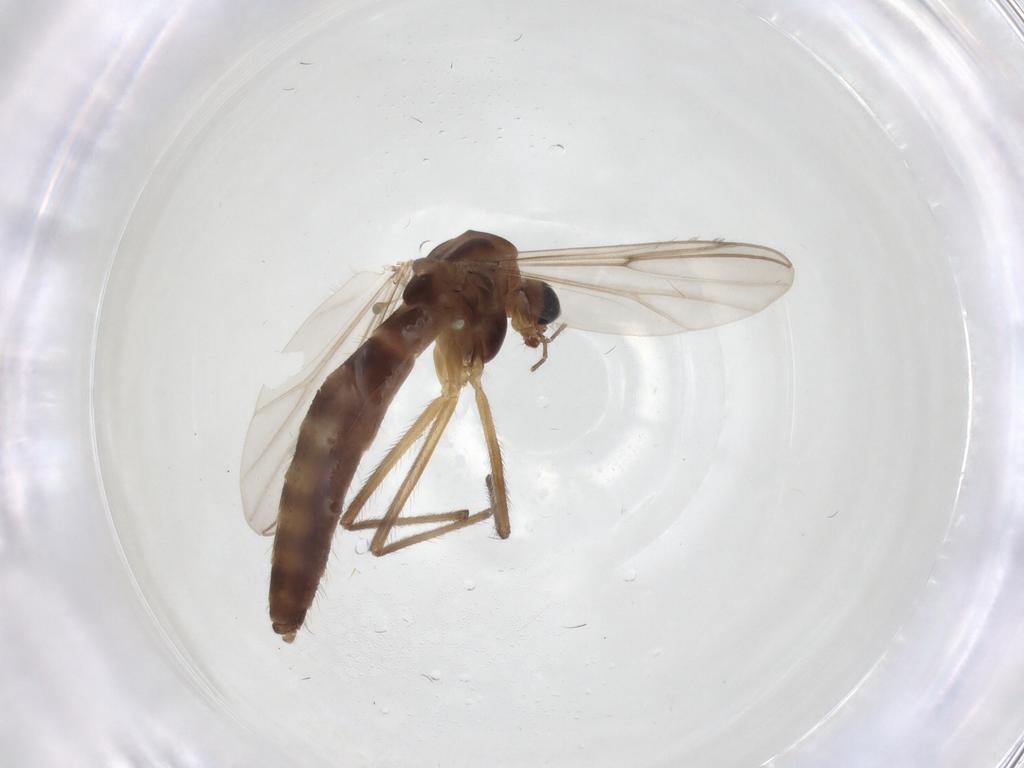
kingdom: Animalia
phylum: Arthropoda
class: Insecta
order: Diptera
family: Chironomidae
